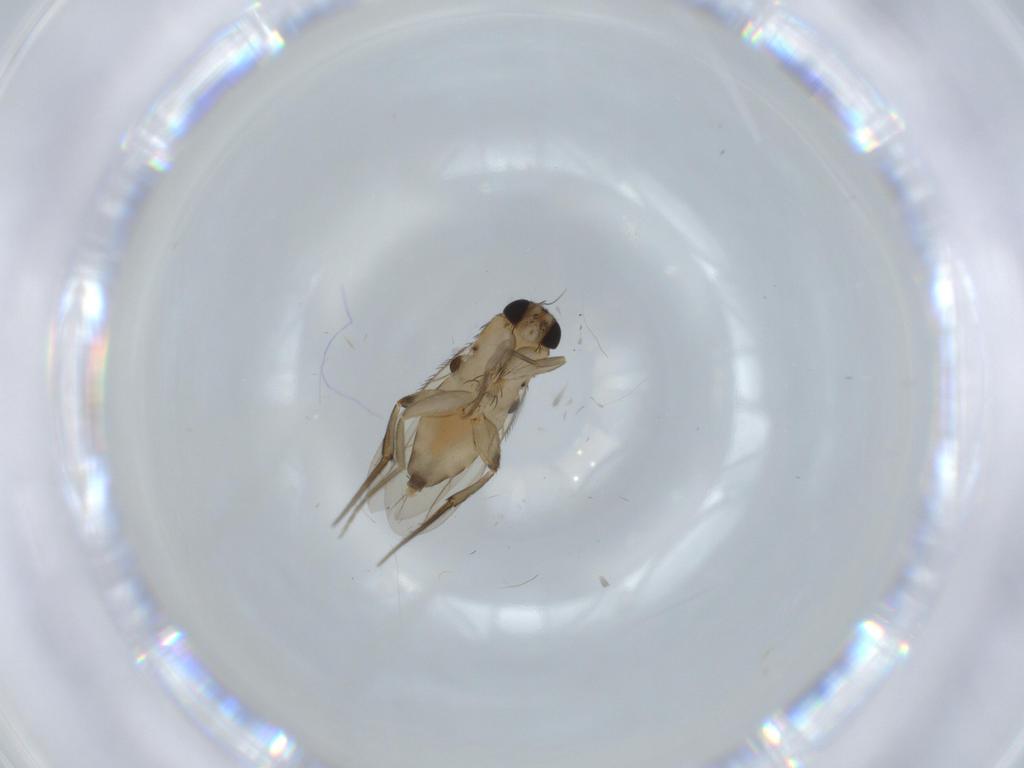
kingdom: Animalia
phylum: Arthropoda
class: Insecta
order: Diptera
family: Phoridae
